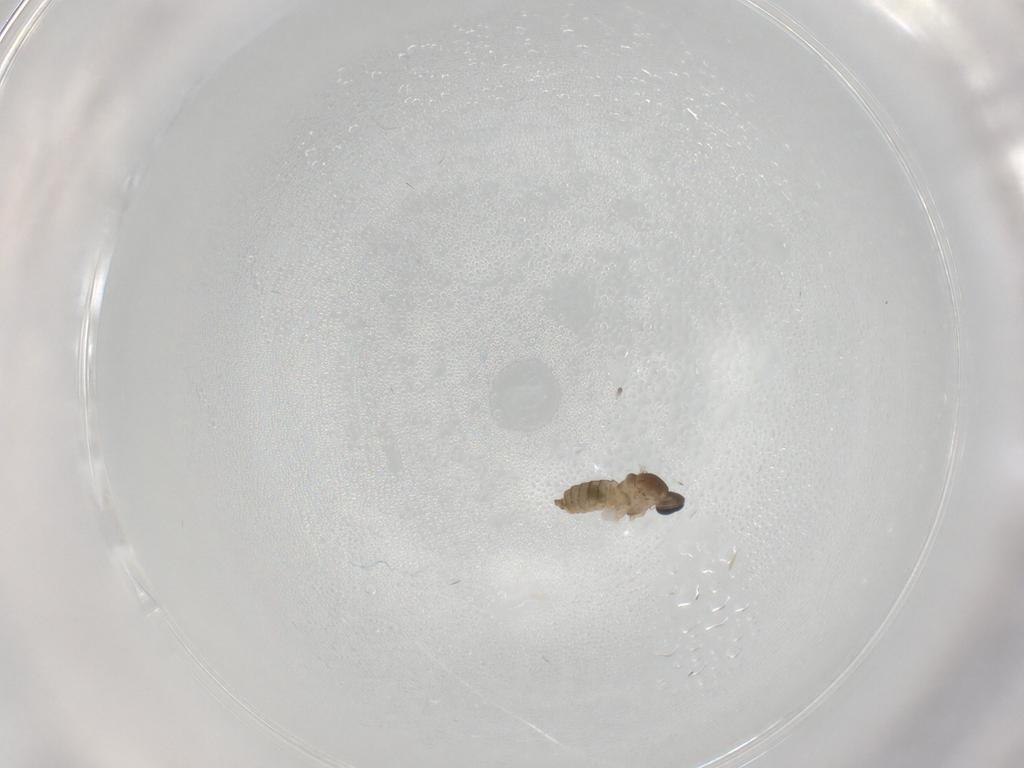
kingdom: Animalia
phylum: Arthropoda
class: Insecta
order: Diptera
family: Cecidomyiidae
